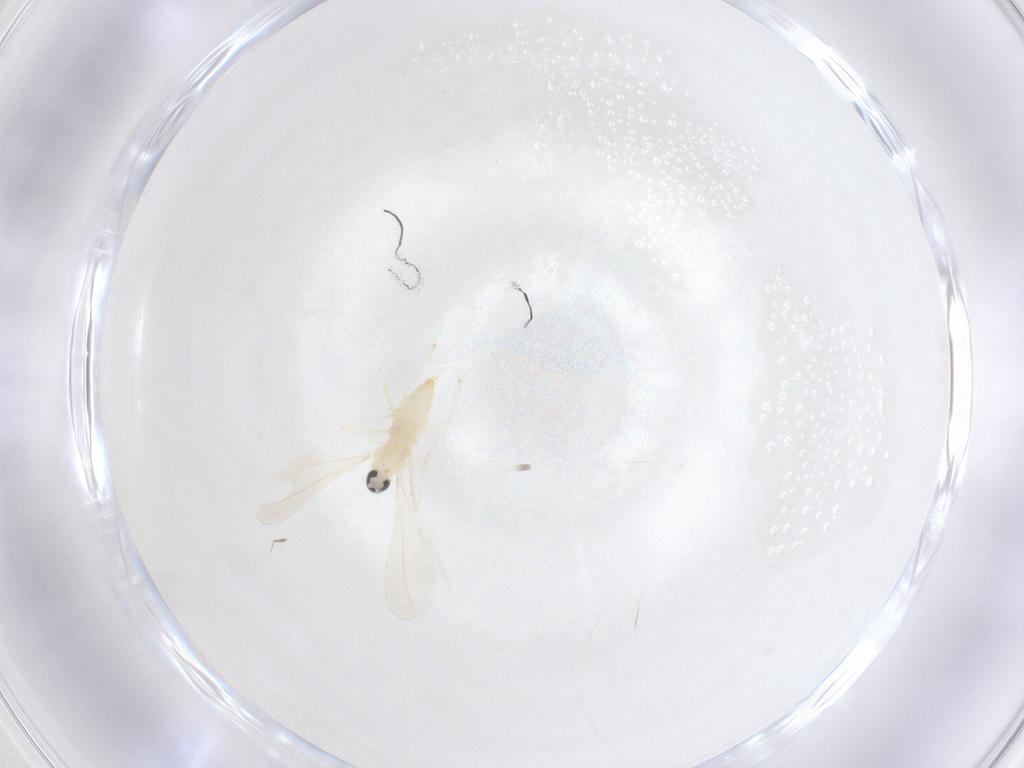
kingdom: Animalia
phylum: Arthropoda
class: Insecta
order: Diptera
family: Cecidomyiidae
